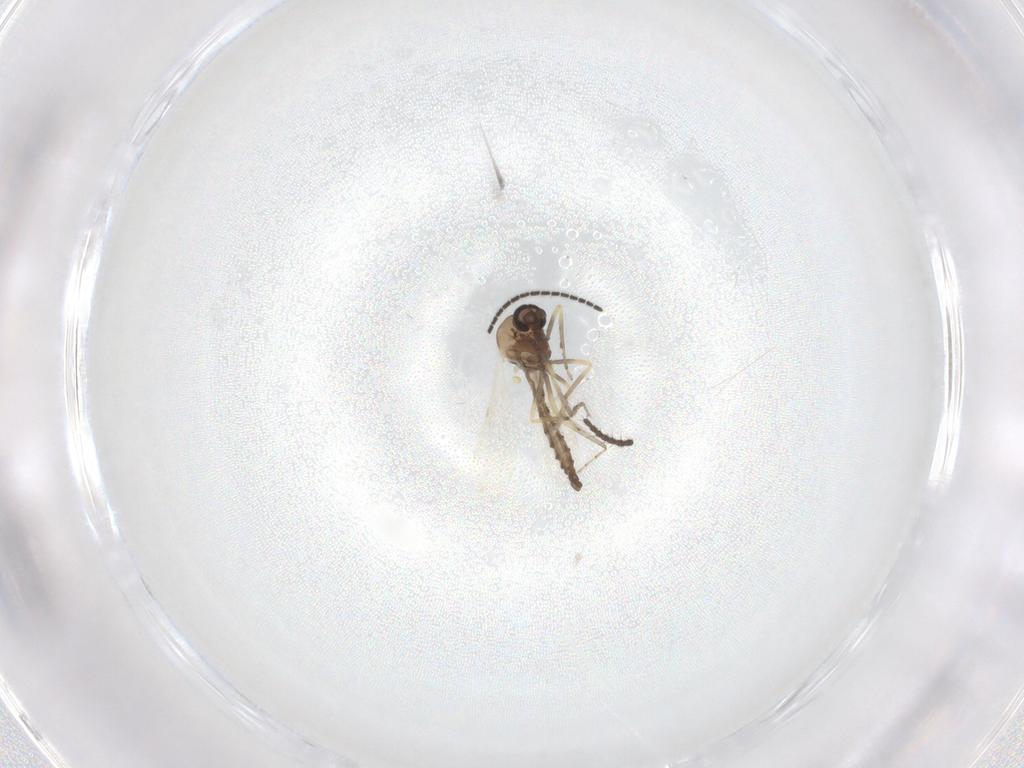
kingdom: Animalia
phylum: Arthropoda
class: Insecta
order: Diptera
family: Ceratopogonidae
